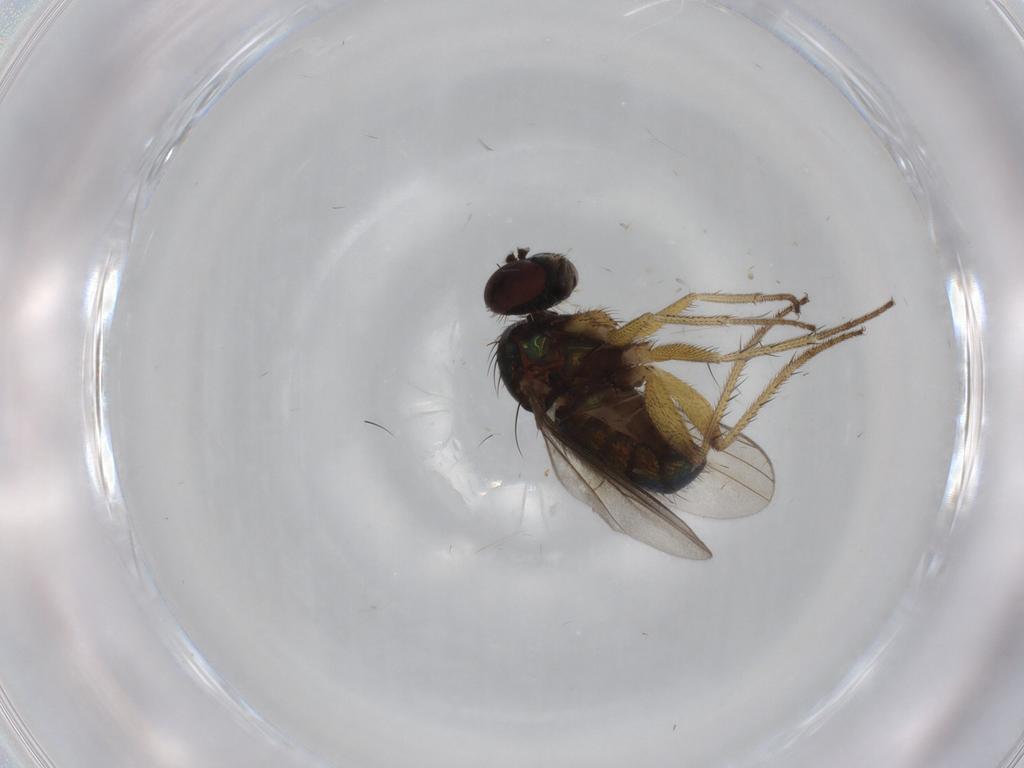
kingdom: Animalia
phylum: Arthropoda
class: Insecta
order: Diptera
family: Dolichopodidae
